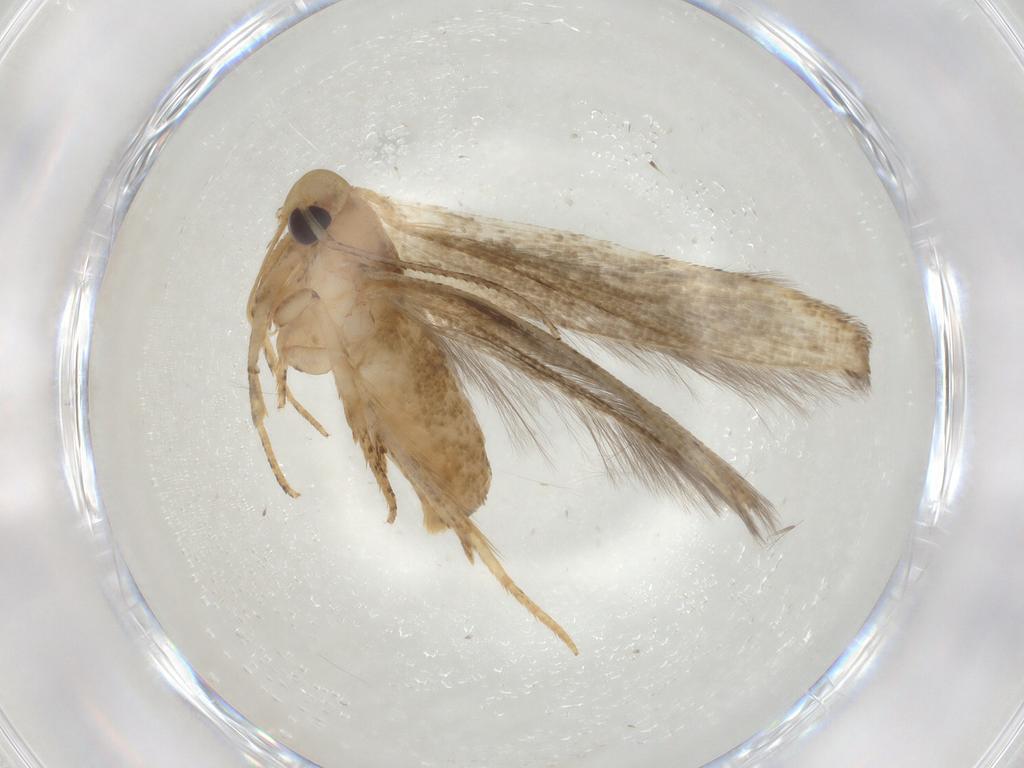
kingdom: Animalia
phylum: Arthropoda
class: Insecta
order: Lepidoptera
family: Cosmopterigidae
